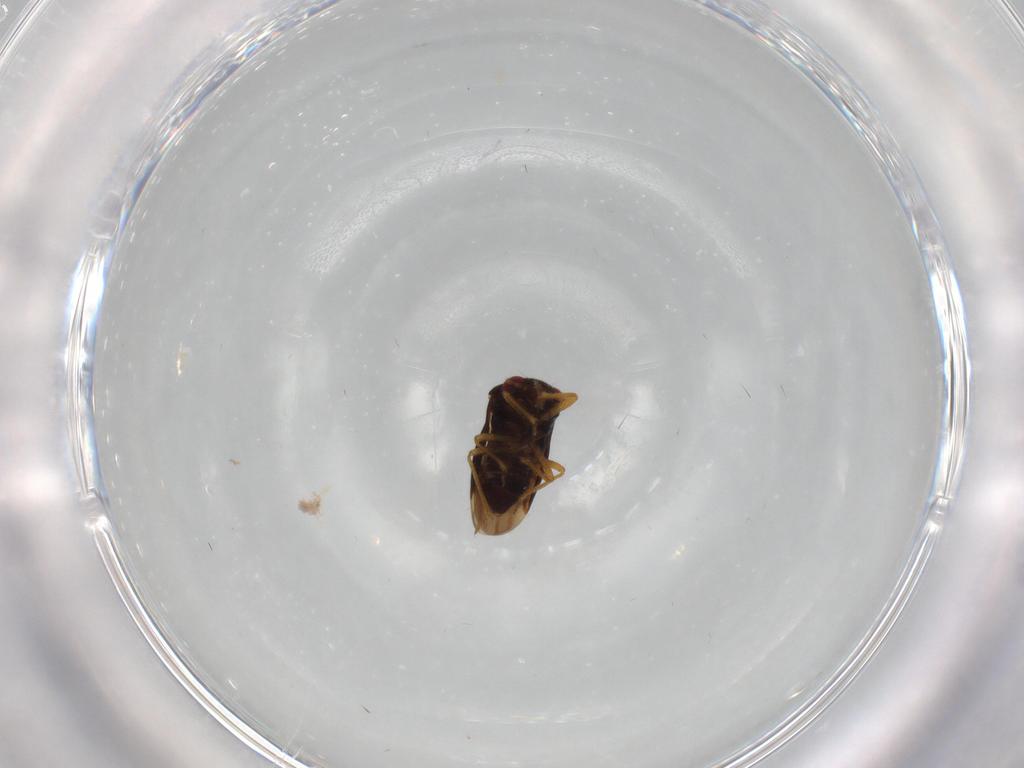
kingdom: Animalia
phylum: Arthropoda
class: Insecta
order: Hemiptera
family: Schizopteridae
